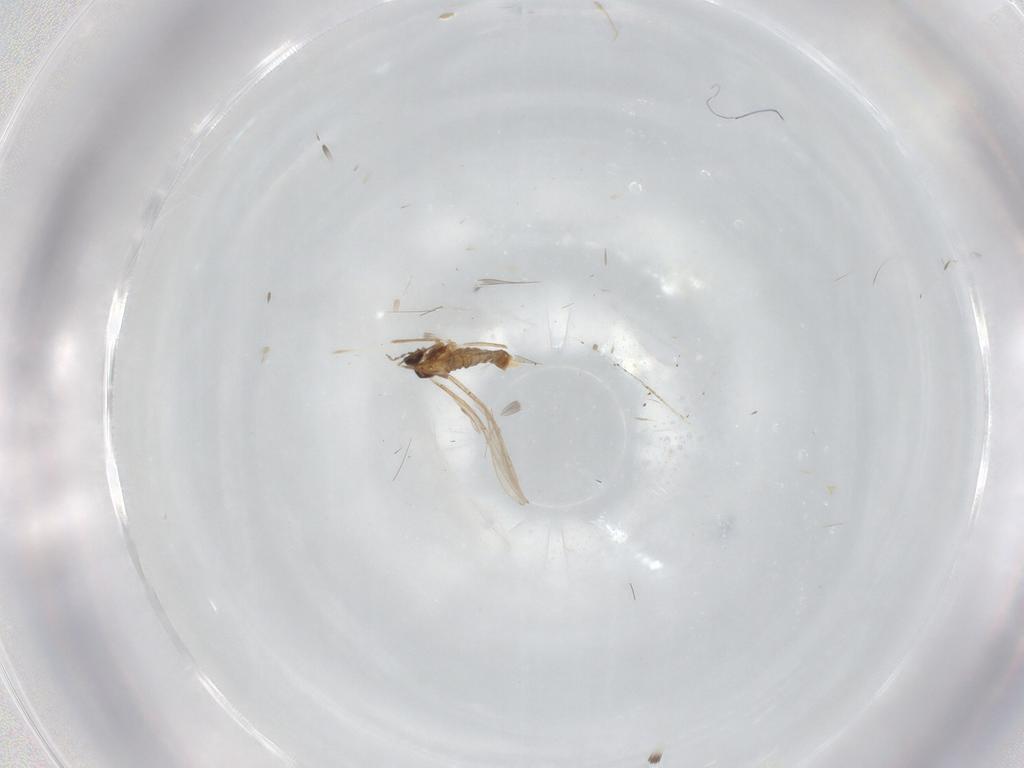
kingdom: Animalia
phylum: Arthropoda
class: Insecta
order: Diptera
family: Cecidomyiidae
